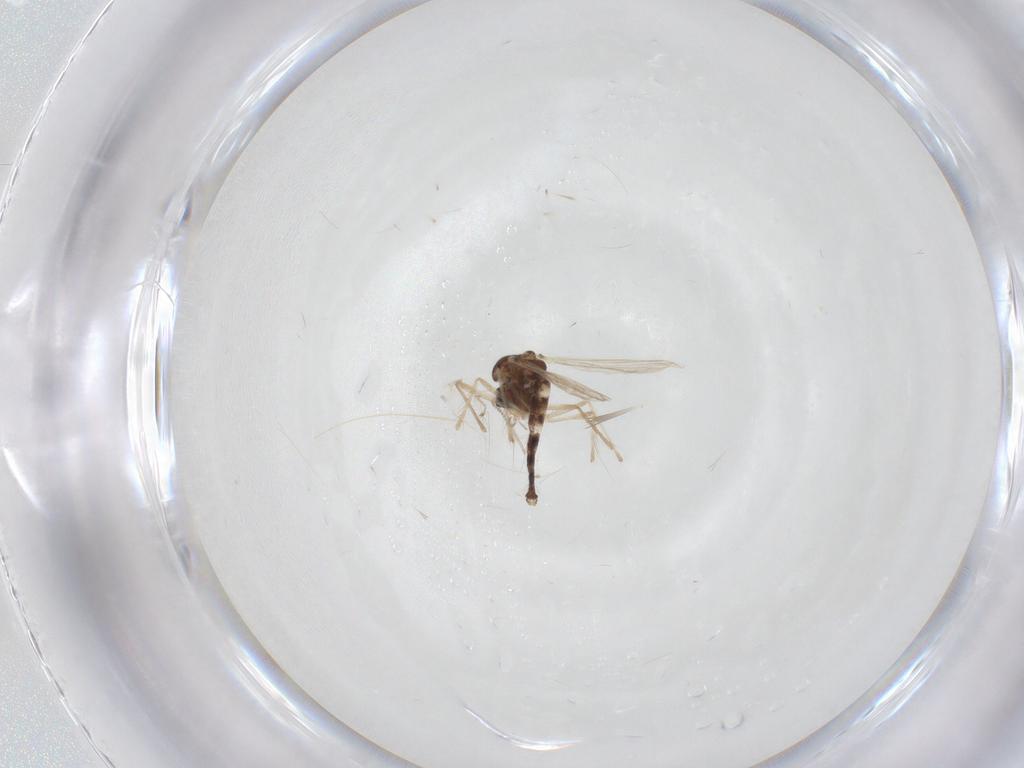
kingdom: Animalia
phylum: Arthropoda
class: Insecta
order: Diptera
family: Chironomidae
